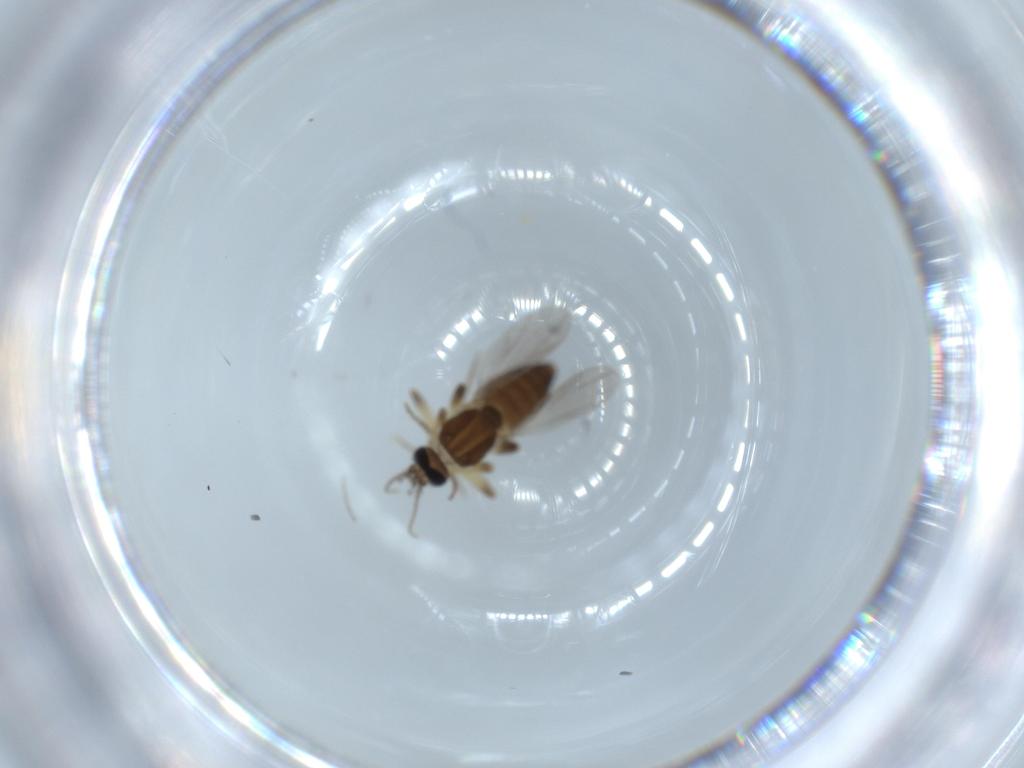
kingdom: Animalia
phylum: Arthropoda
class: Insecta
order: Diptera
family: Ceratopogonidae
